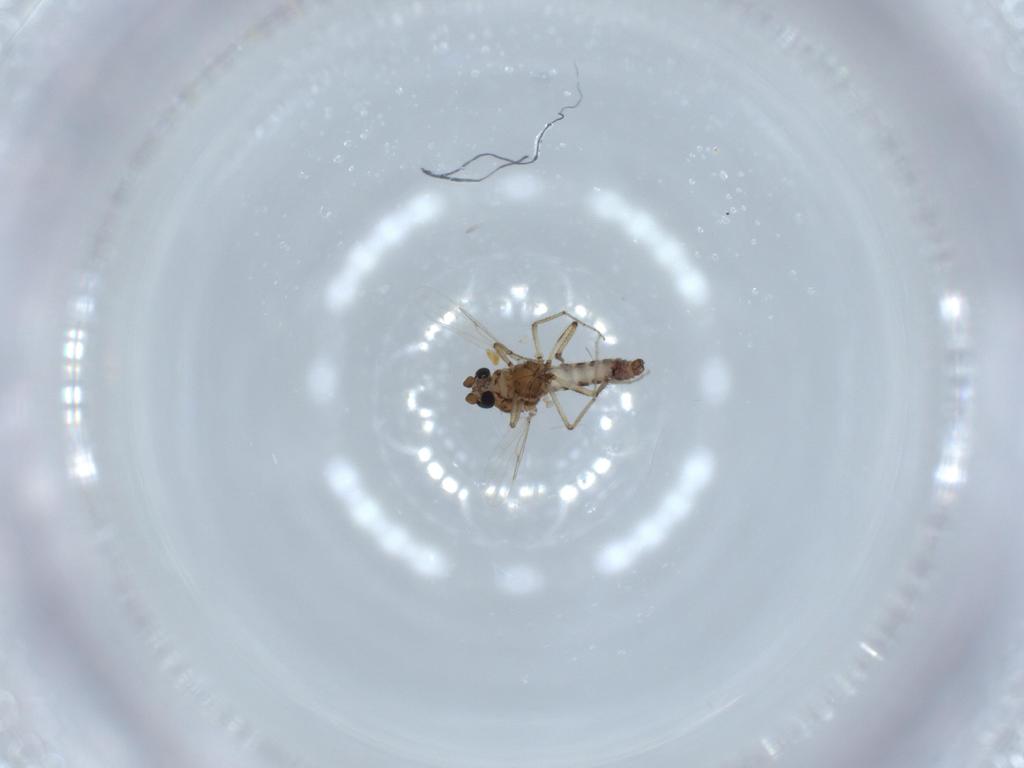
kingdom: Animalia
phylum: Arthropoda
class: Insecta
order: Diptera
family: Ceratopogonidae
